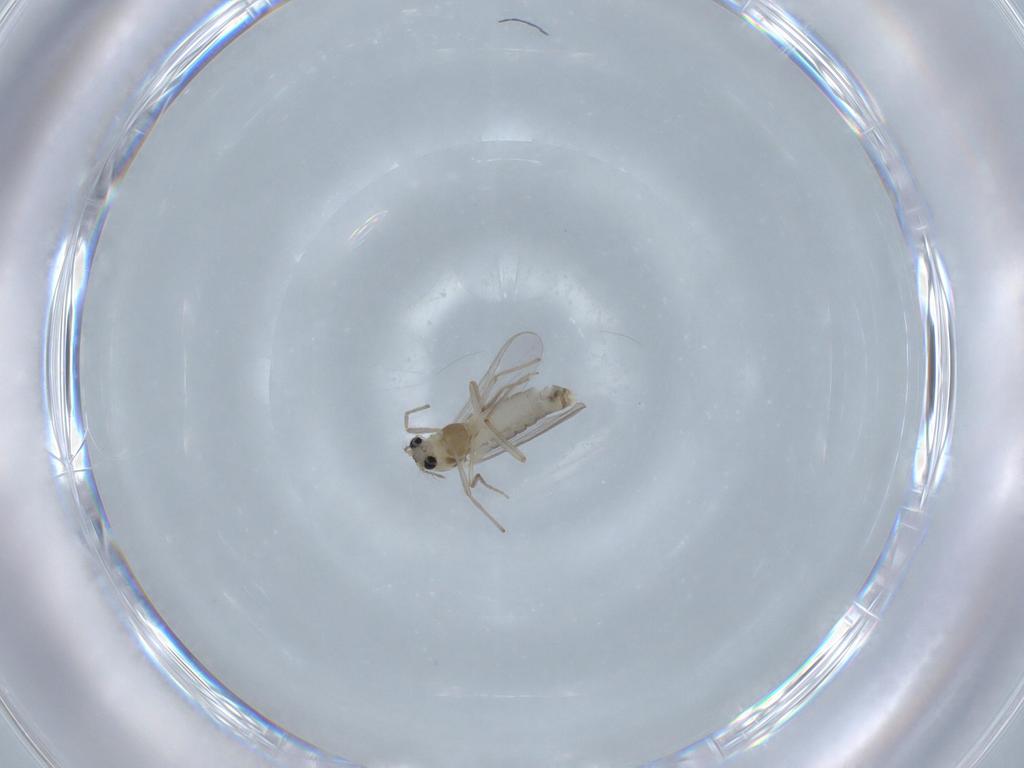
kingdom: Animalia
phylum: Arthropoda
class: Insecta
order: Diptera
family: Chironomidae
